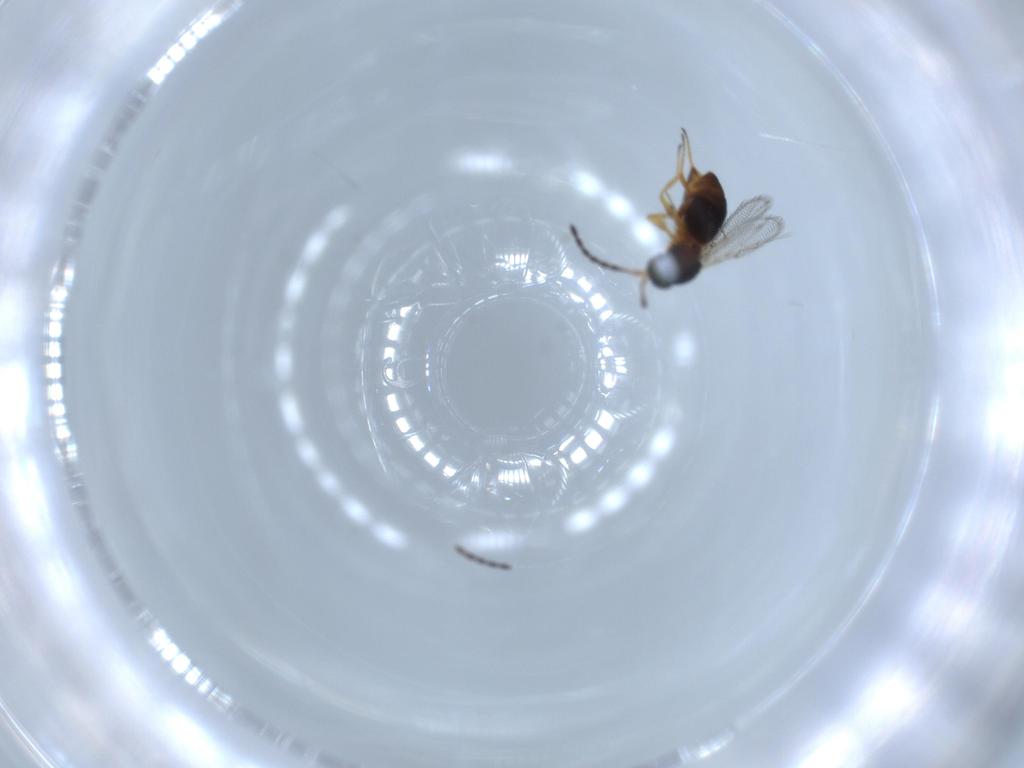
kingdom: Animalia
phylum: Arthropoda
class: Insecta
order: Hymenoptera
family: Figitidae
